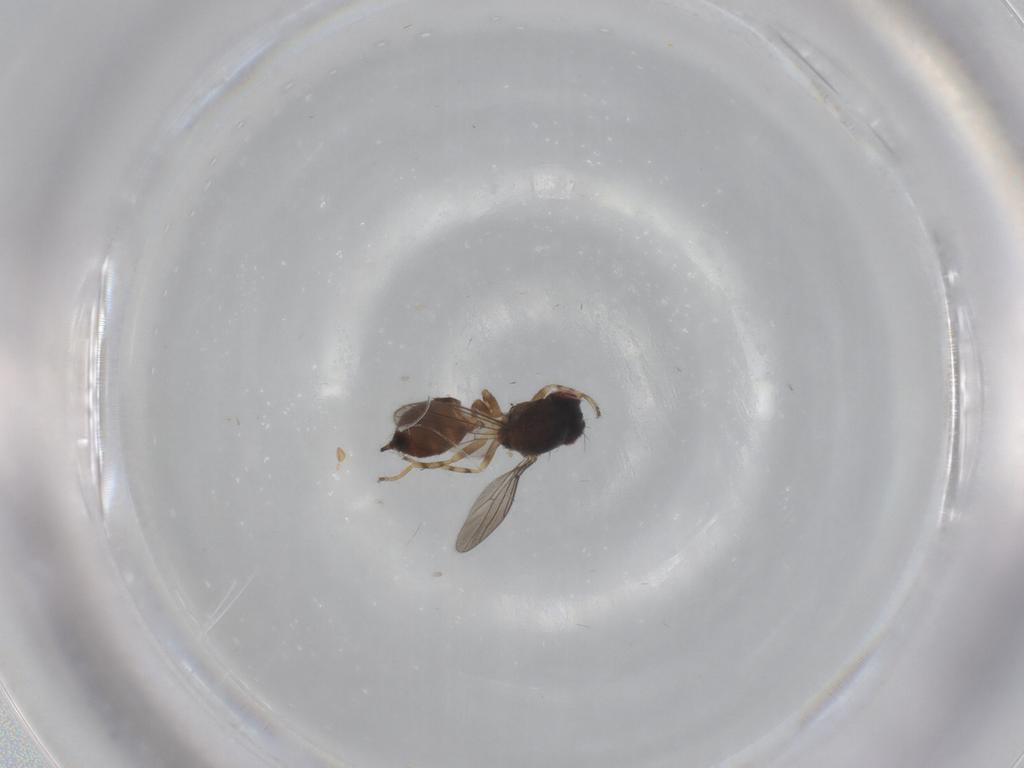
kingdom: Animalia
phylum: Arthropoda
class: Insecta
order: Diptera
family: Chloropidae
